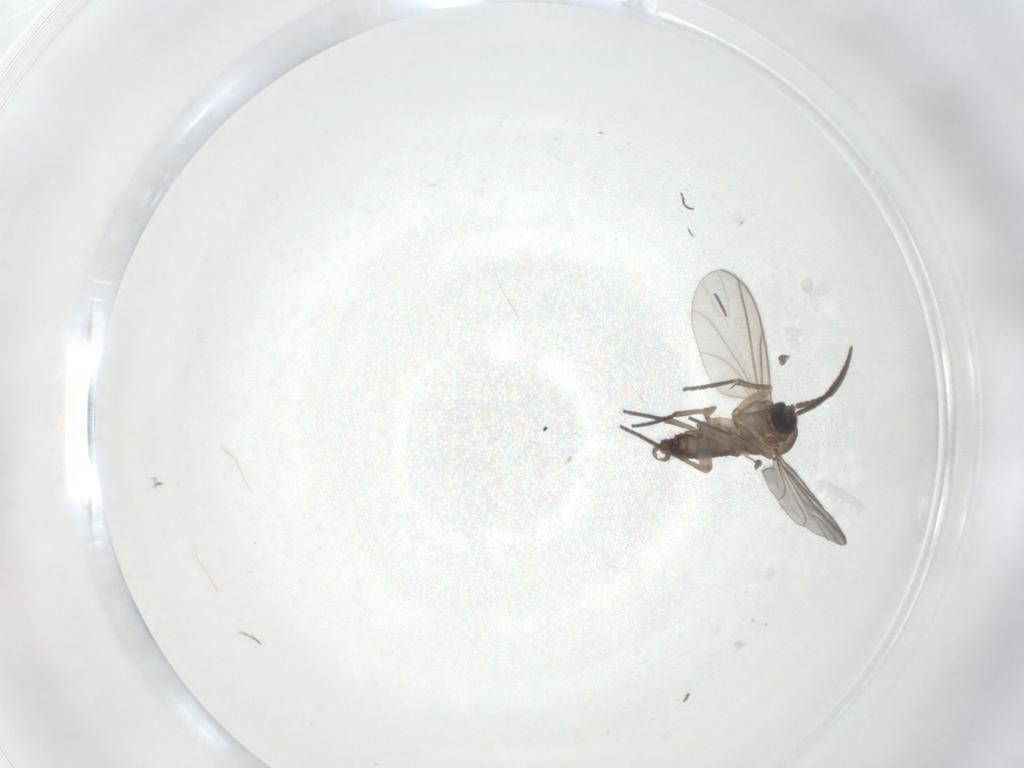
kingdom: Animalia
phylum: Arthropoda
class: Insecta
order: Diptera
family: Sciaridae
